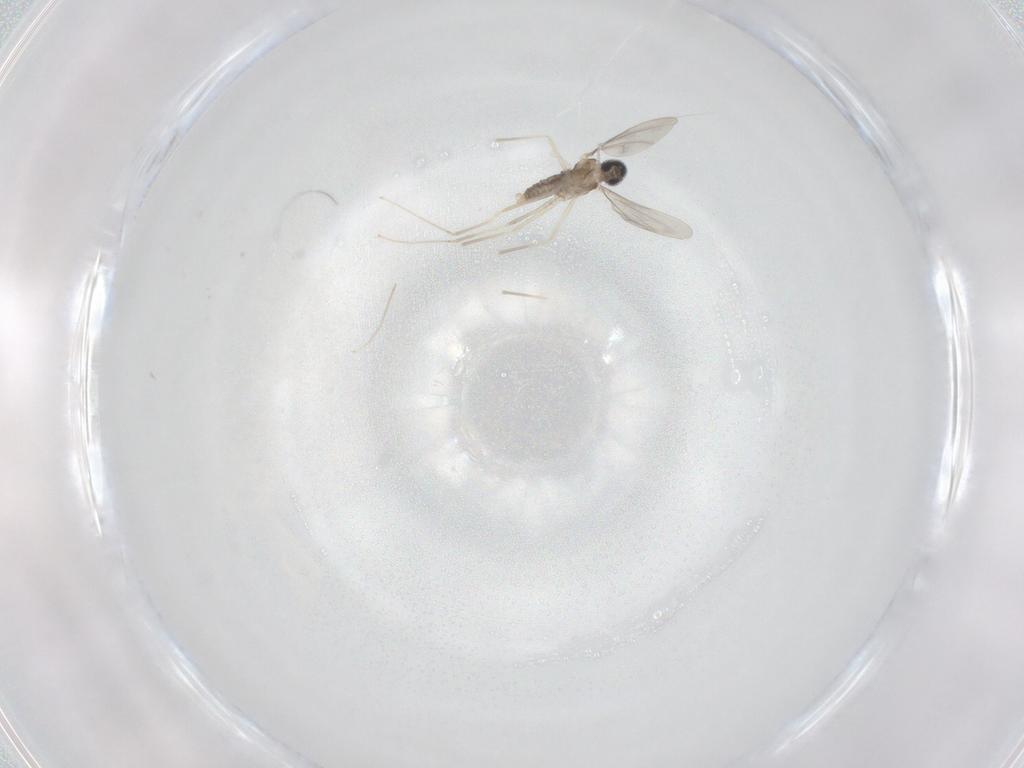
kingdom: Animalia
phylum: Arthropoda
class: Insecta
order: Diptera
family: Cecidomyiidae
